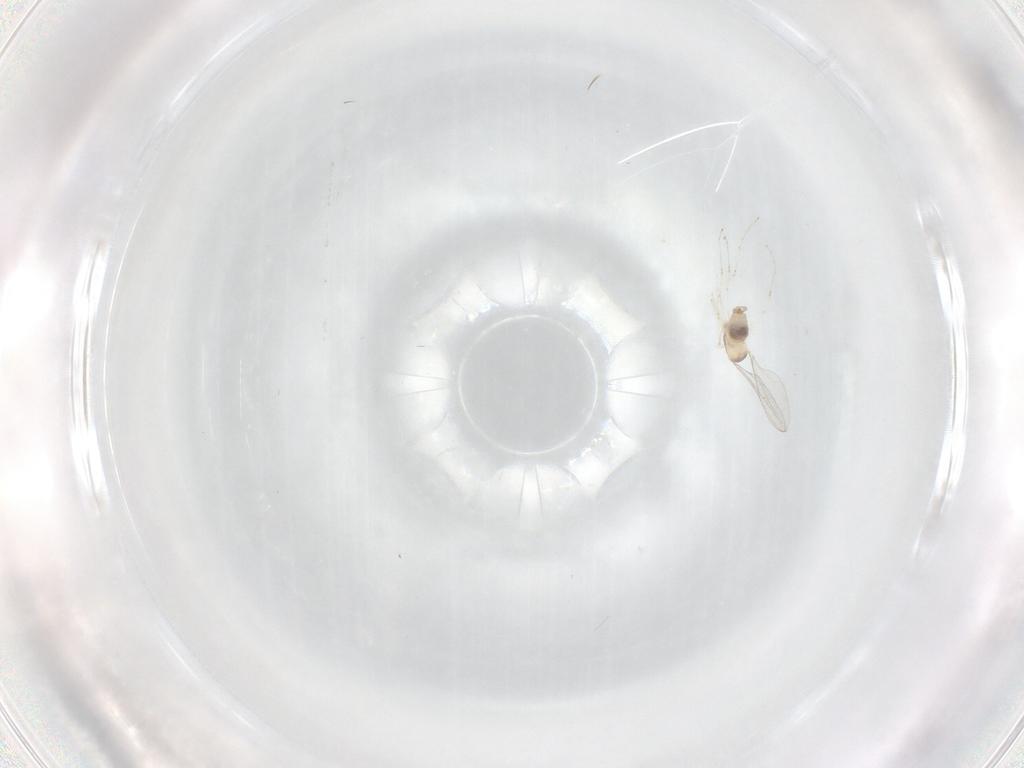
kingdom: Animalia
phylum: Arthropoda
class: Insecta
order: Diptera
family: Cecidomyiidae
